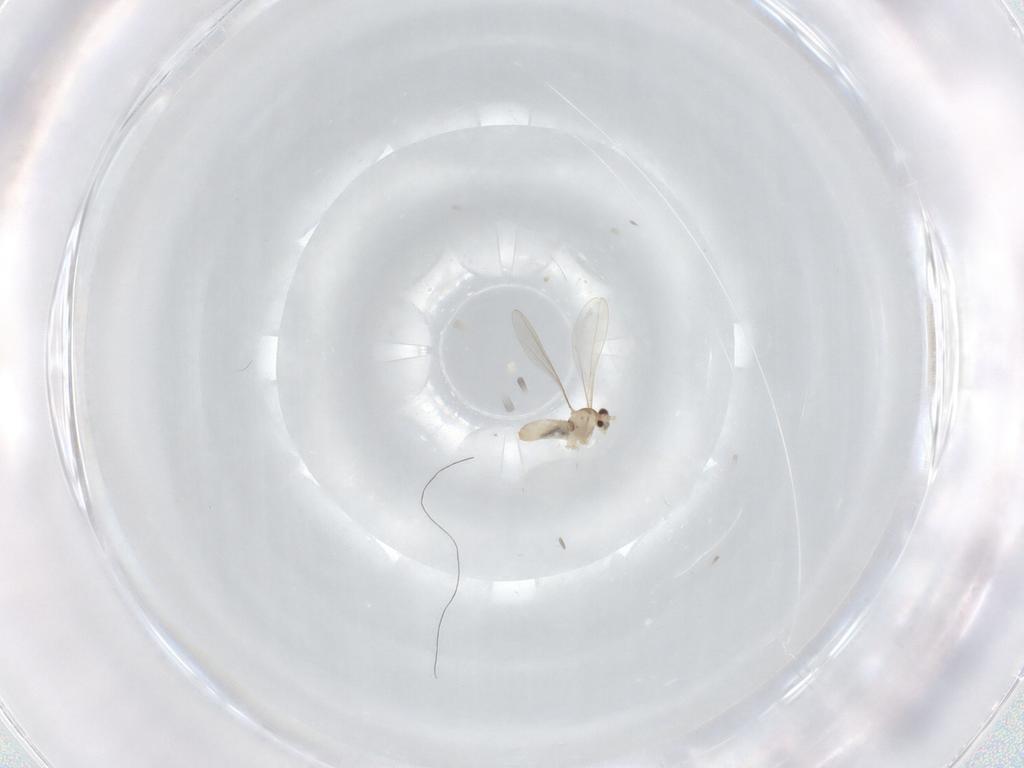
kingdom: Animalia
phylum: Arthropoda
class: Insecta
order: Diptera
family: Cecidomyiidae
